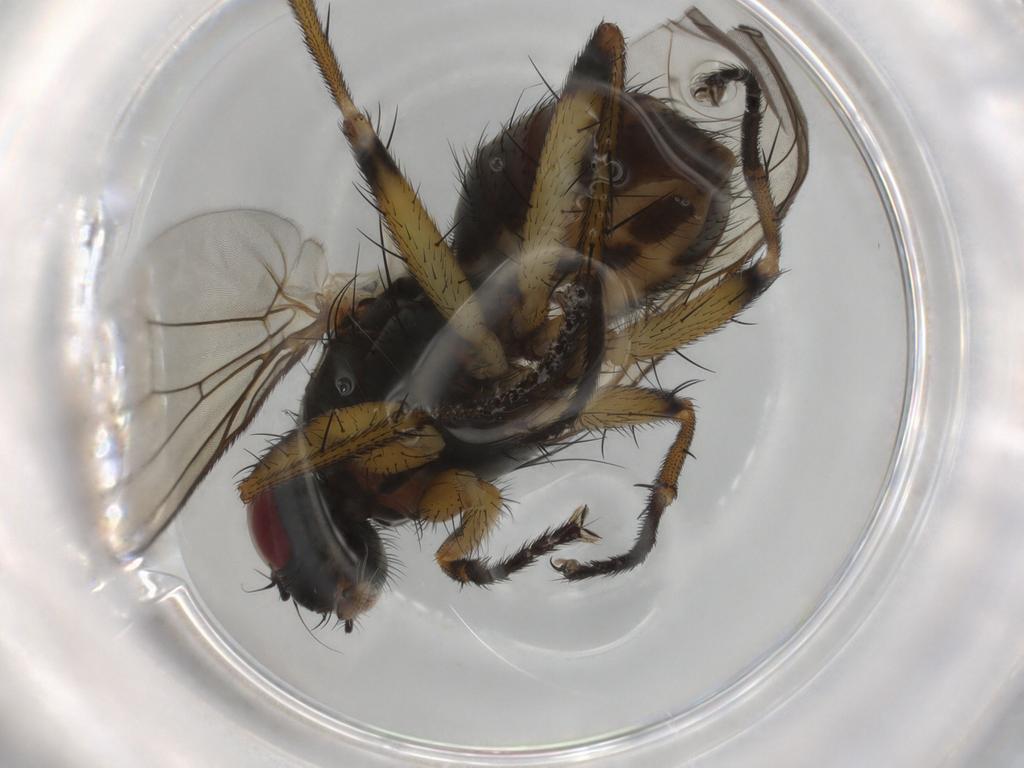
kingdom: Animalia
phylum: Arthropoda
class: Insecta
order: Diptera
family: Muscidae
